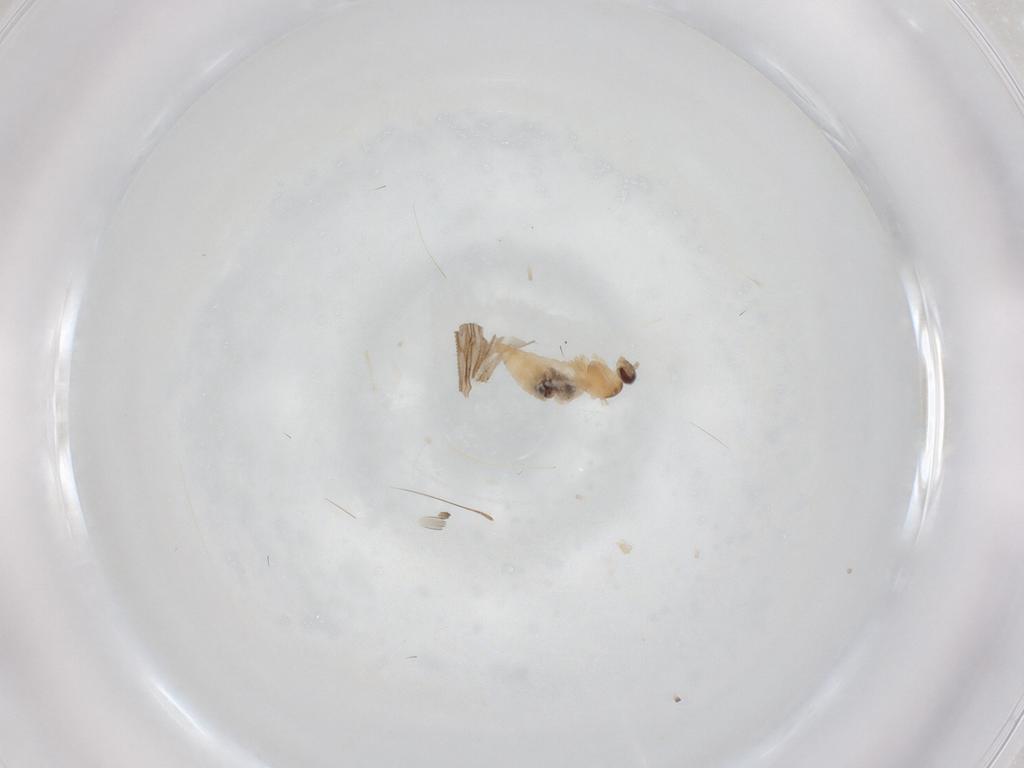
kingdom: Animalia
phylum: Arthropoda
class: Insecta
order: Diptera
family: Cecidomyiidae
